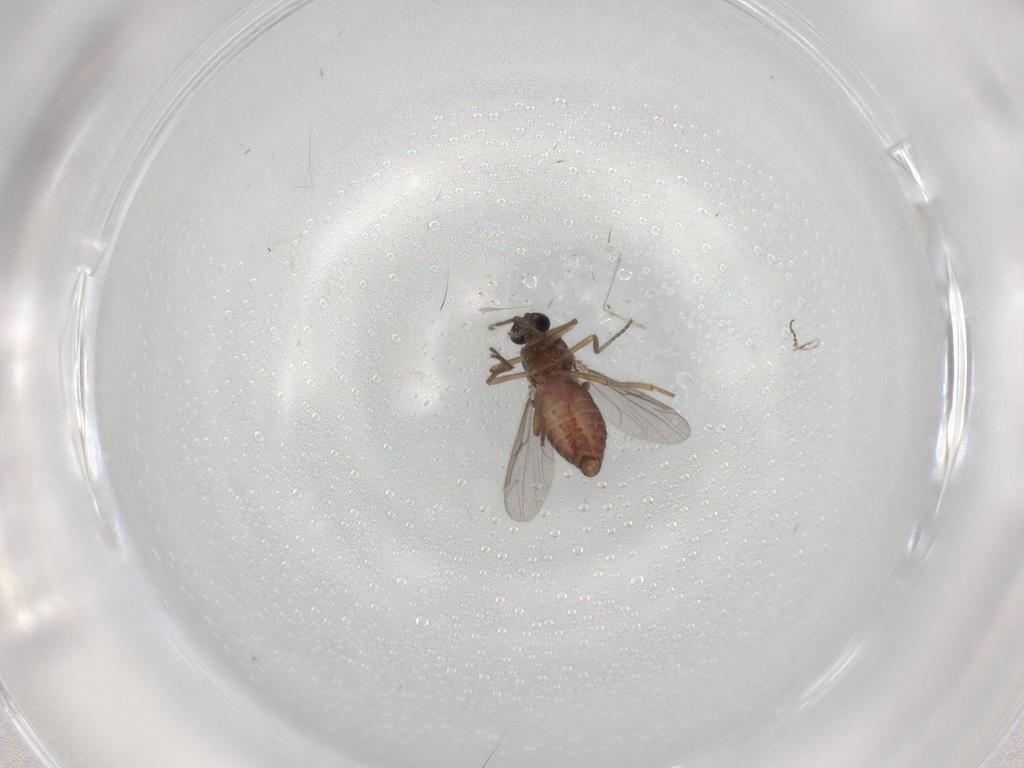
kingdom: Animalia
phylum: Arthropoda
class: Insecta
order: Diptera
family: Ceratopogonidae
